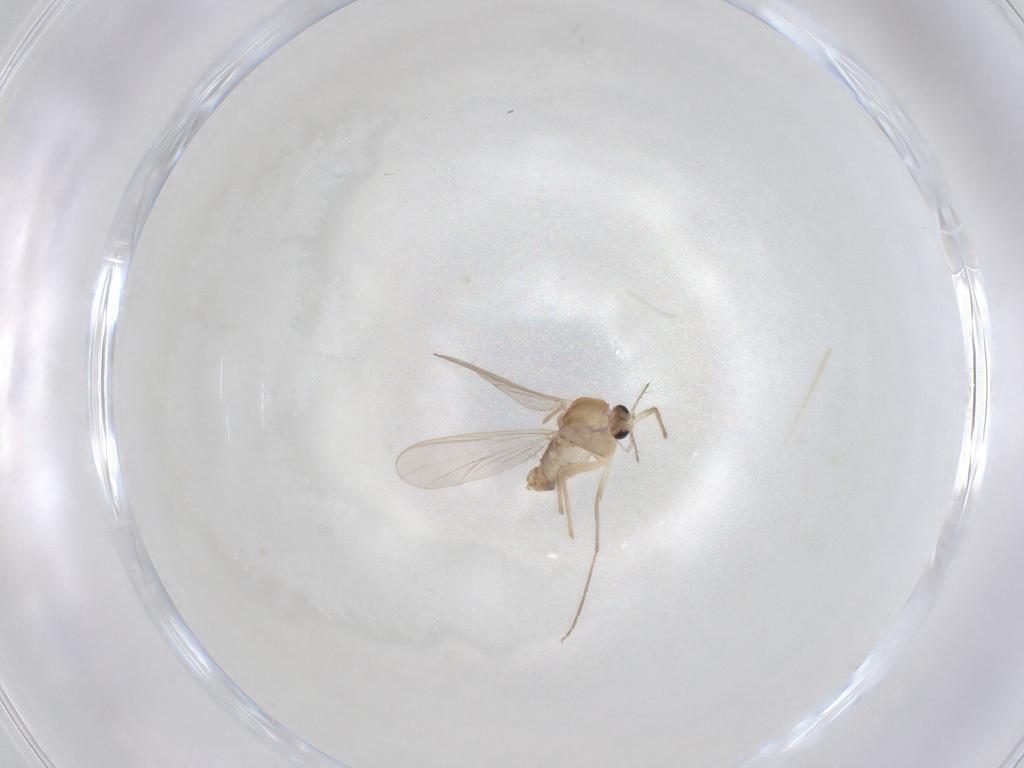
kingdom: Animalia
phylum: Arthropoda
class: Insecta
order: Diptera
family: Chironomidae
